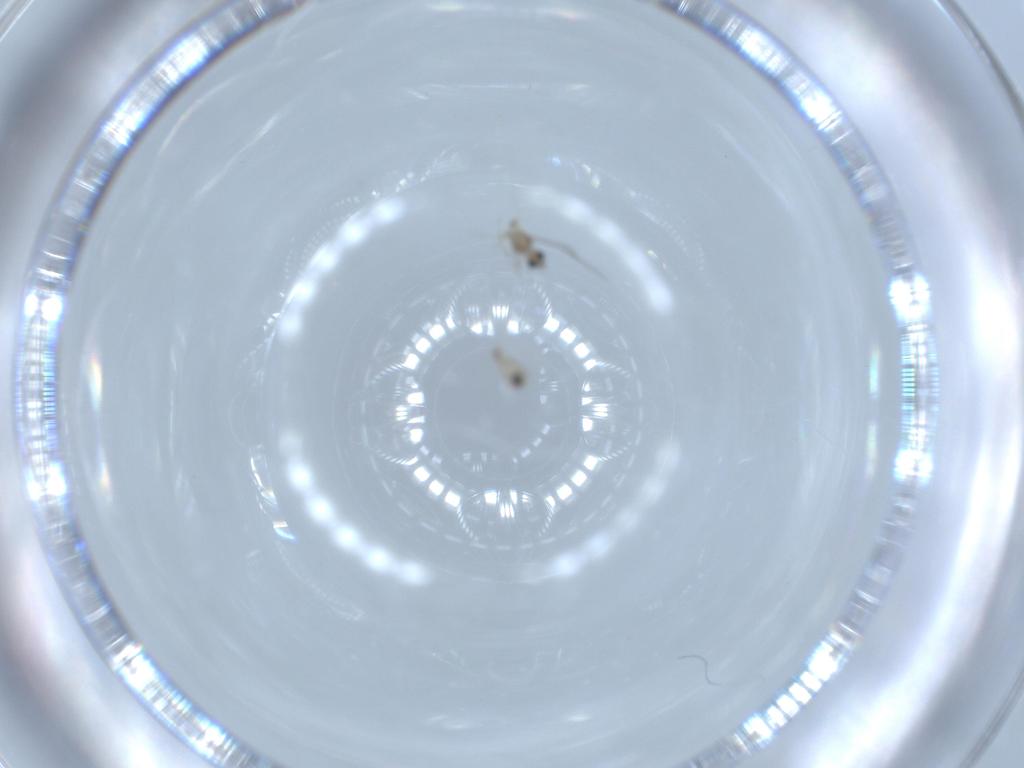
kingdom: Animalia
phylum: Arthropoda
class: Insecta
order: Diptera
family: Chironomidae
